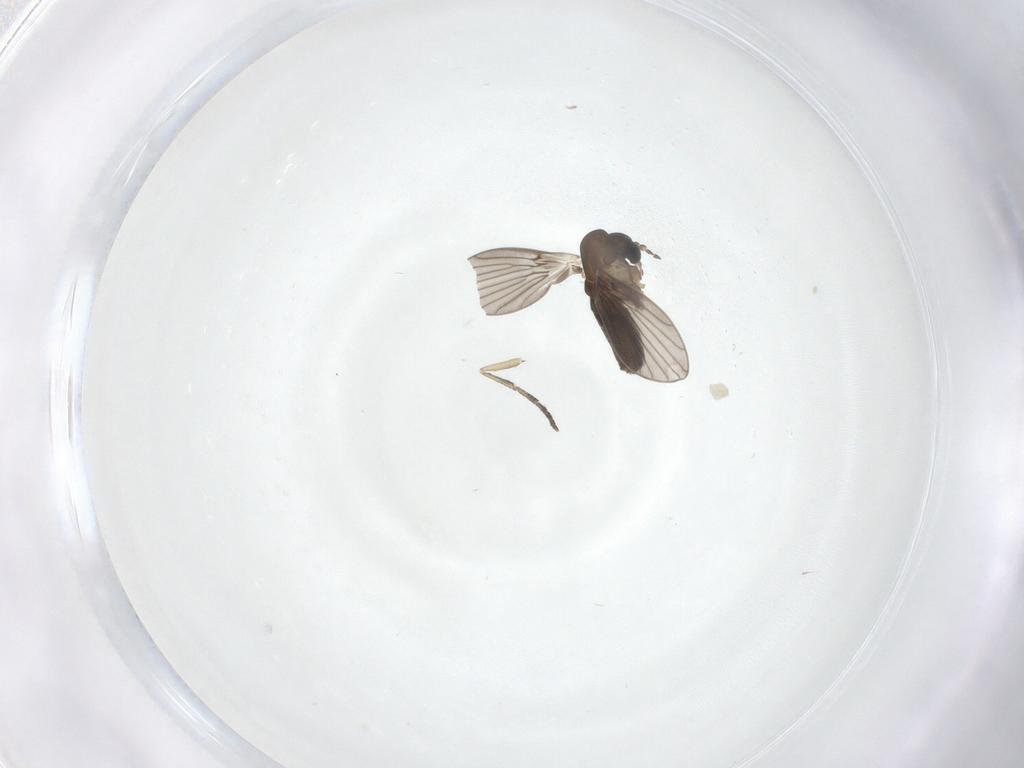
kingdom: Animalia
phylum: Arthropoda
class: Insecta
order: Diptera
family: Psychodidae
